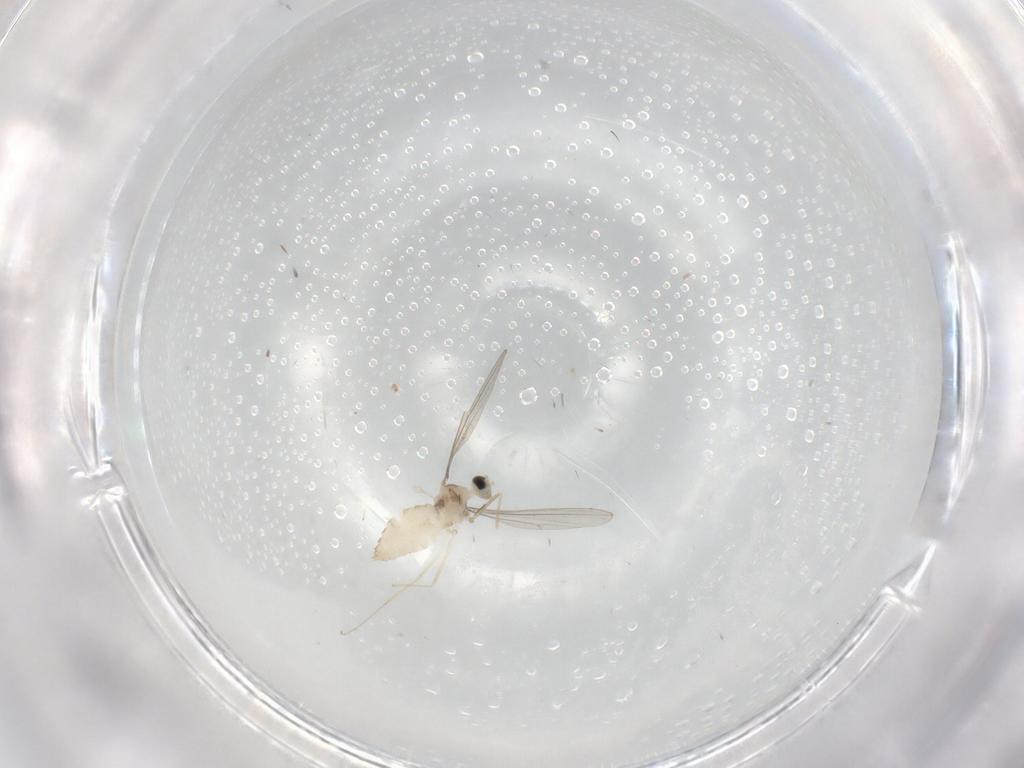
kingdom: Animalia
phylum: Arthropoda
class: Insecta
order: Diptera
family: Cecidomyiidae
